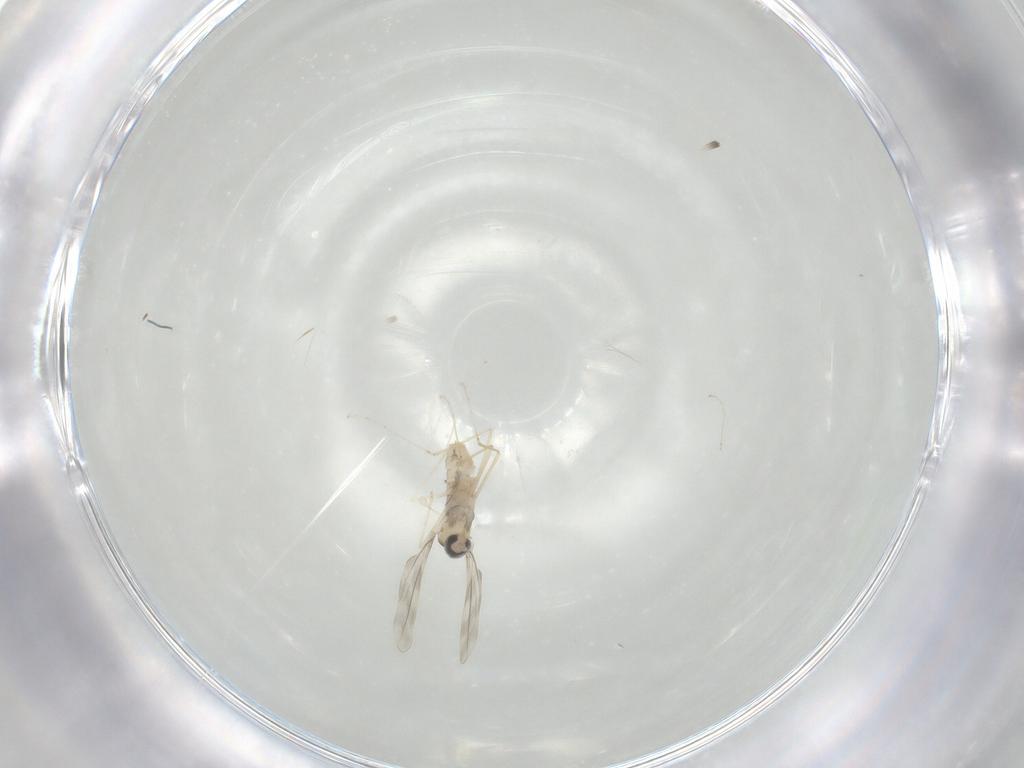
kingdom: Animalia
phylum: Arthropoda
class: Insecta
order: Diptera
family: Cecidomyiidae
